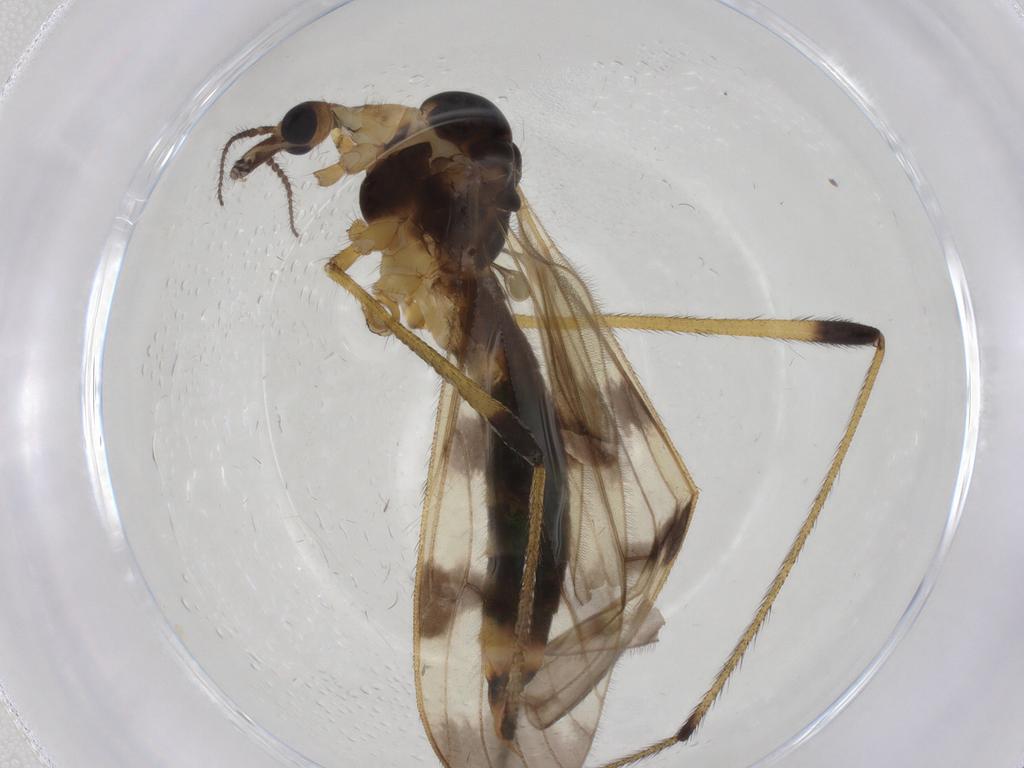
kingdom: Animalia
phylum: Arthropoda
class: Insecta
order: Diptera
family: Limoniidae
